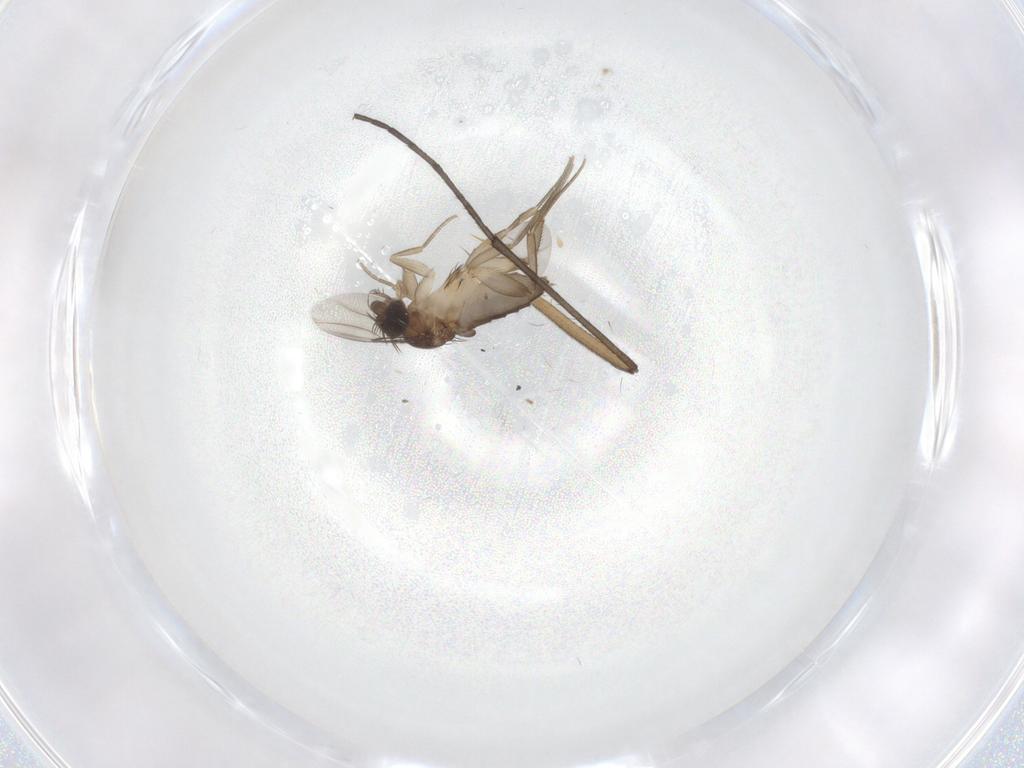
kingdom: Animalia
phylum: Arthropoda
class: Insecta
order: Diptera
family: Phoridae
